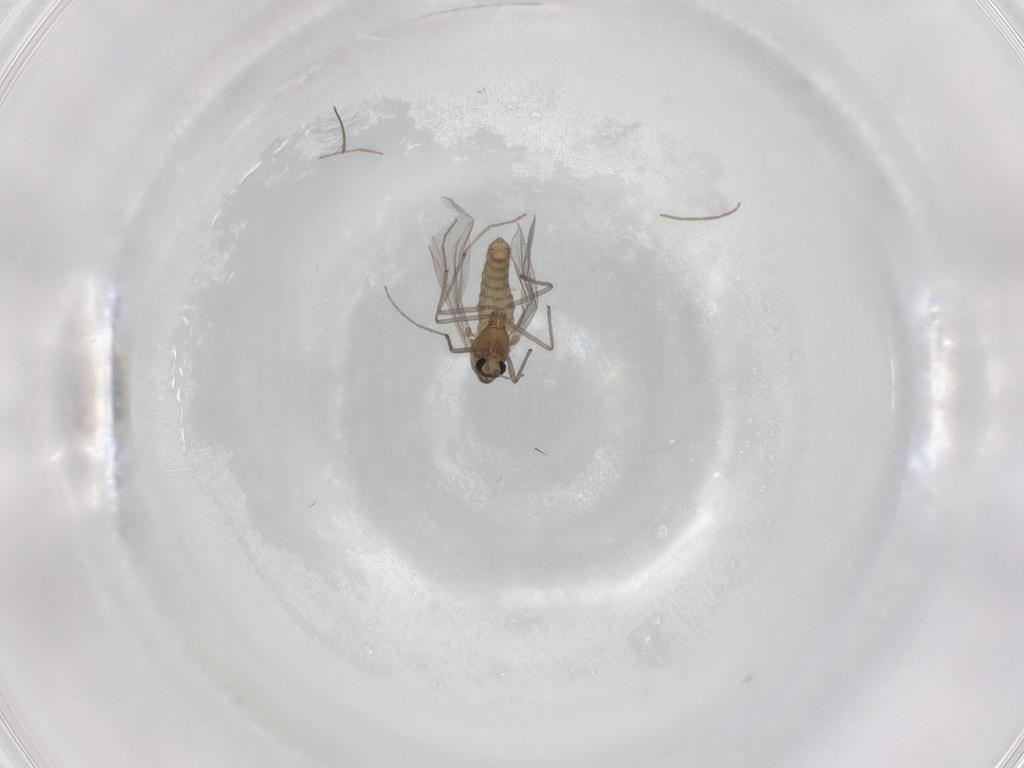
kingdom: Animalia
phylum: Arthropoda
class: Insecta
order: Diptera
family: Chironomidae
